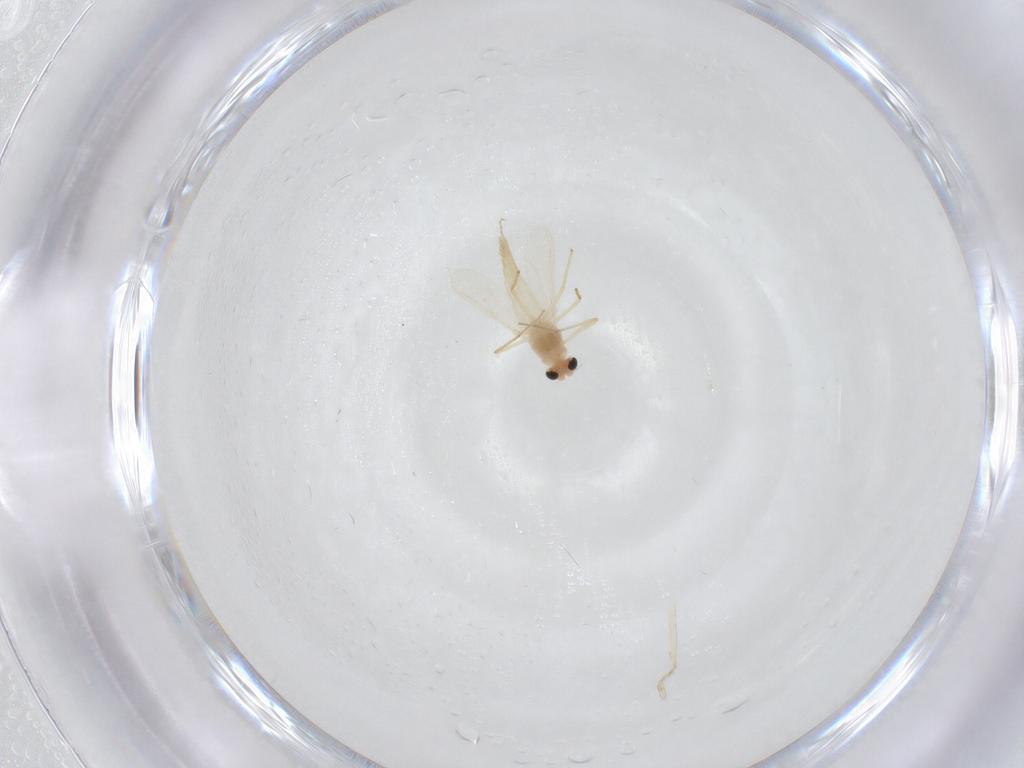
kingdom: Animalia
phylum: Arthropoda
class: Insecta
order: Diptera
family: Chironomidae
